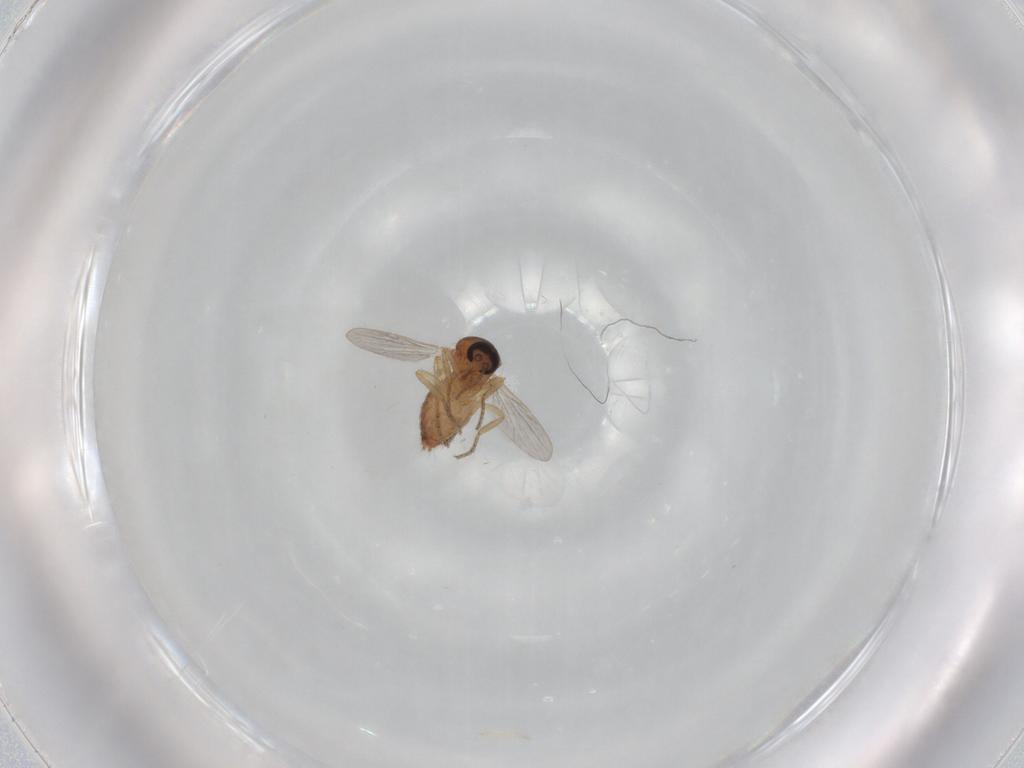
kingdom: Animalia
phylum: Arthropoda
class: Insecta
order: Diptera
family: Ceratopogonidae
